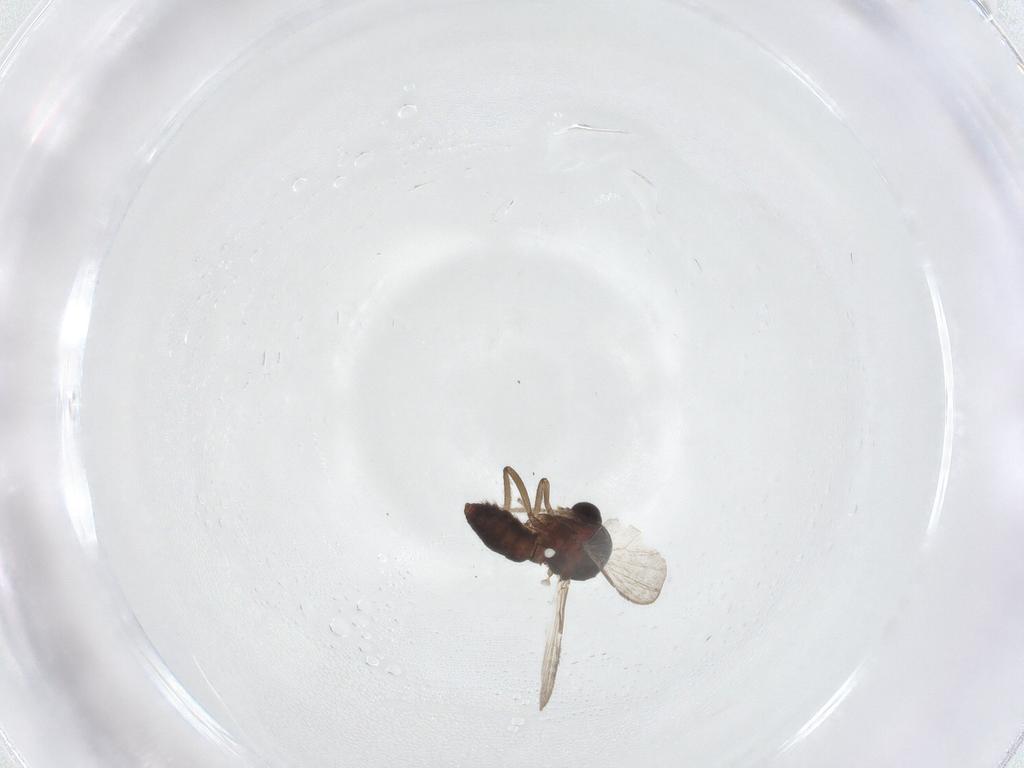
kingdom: Animalia
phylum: Arthropoda
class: Insecta
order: Diptera
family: Ceratopogonidae
